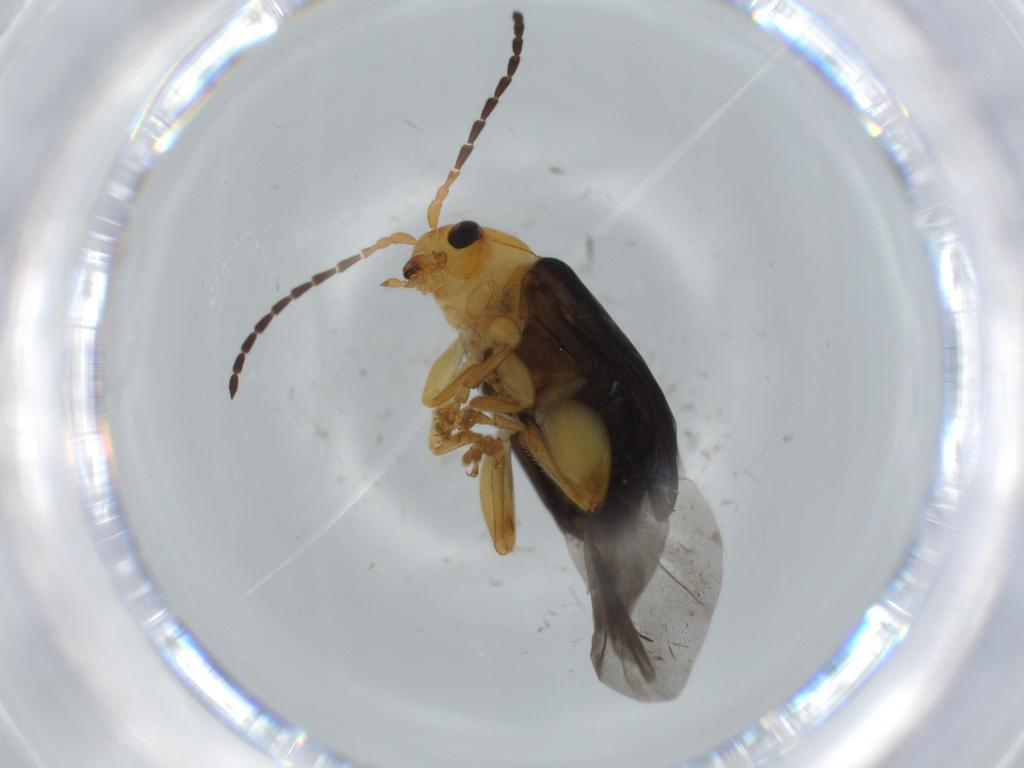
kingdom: Animalia
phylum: Arthropoda
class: Insecta
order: Coleoptera
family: Chrysomelidae
